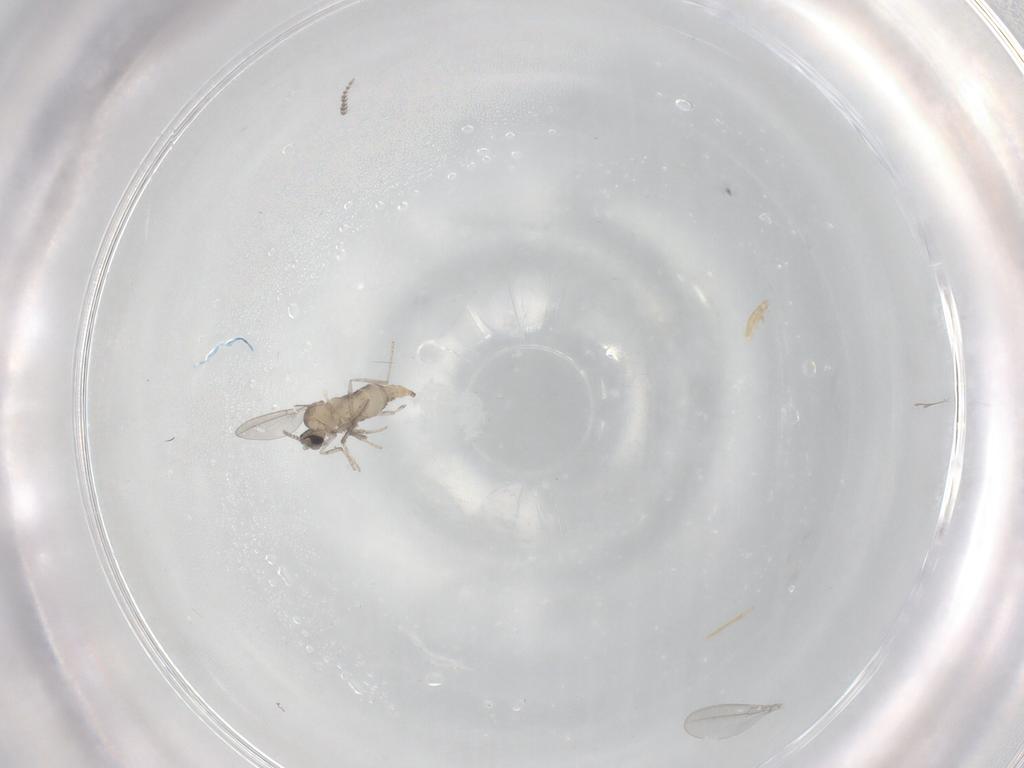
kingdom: Animalia
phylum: Arthropoda
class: Insecta
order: Diptera
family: Cecidomyiidae
